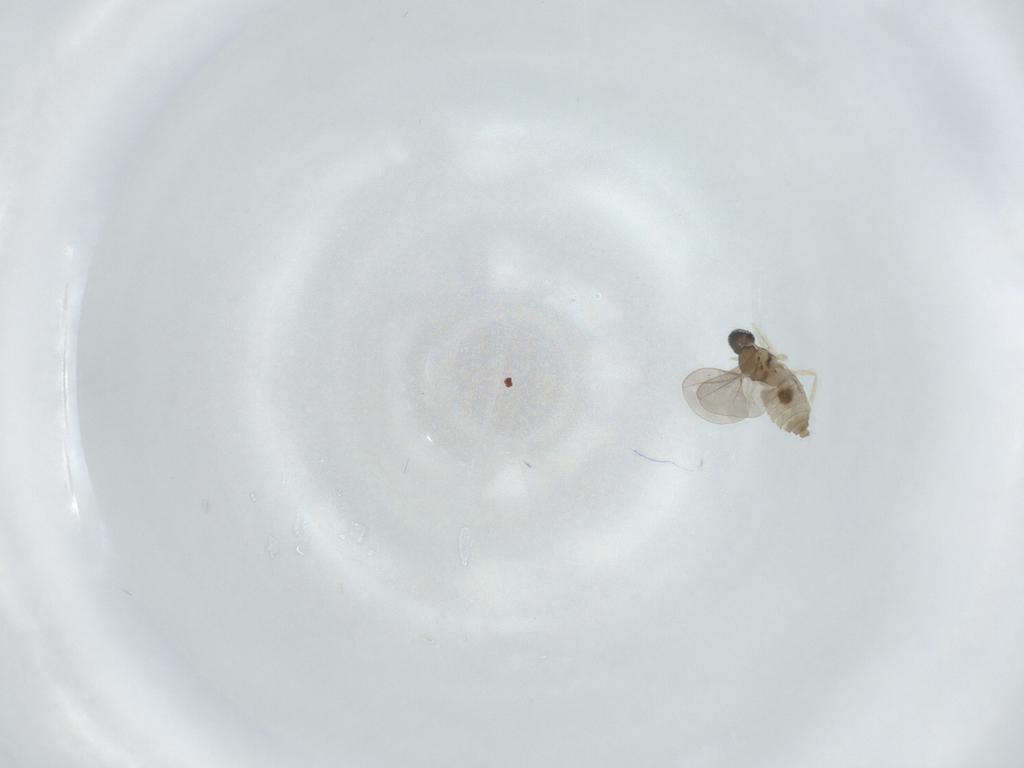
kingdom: Animalia
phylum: Arthropoda
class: Insecta
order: Diptera
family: Cecidomyiidae
